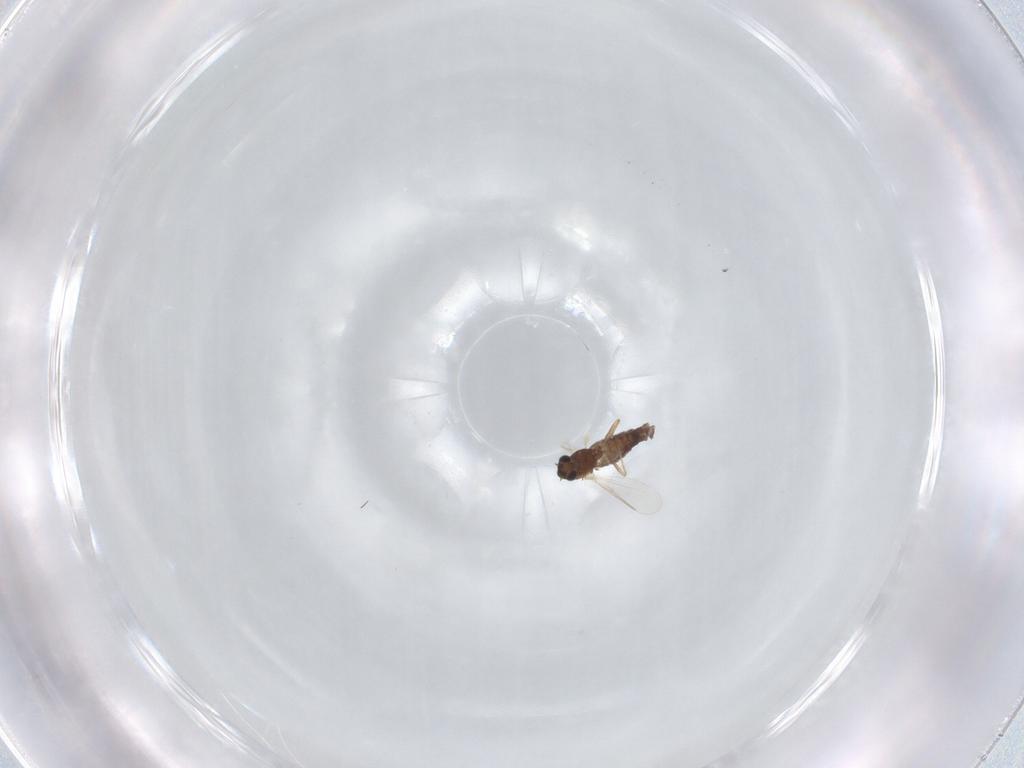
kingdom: Animalia
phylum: Arthropoda
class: Insecta
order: Diptera
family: Chironomidae
